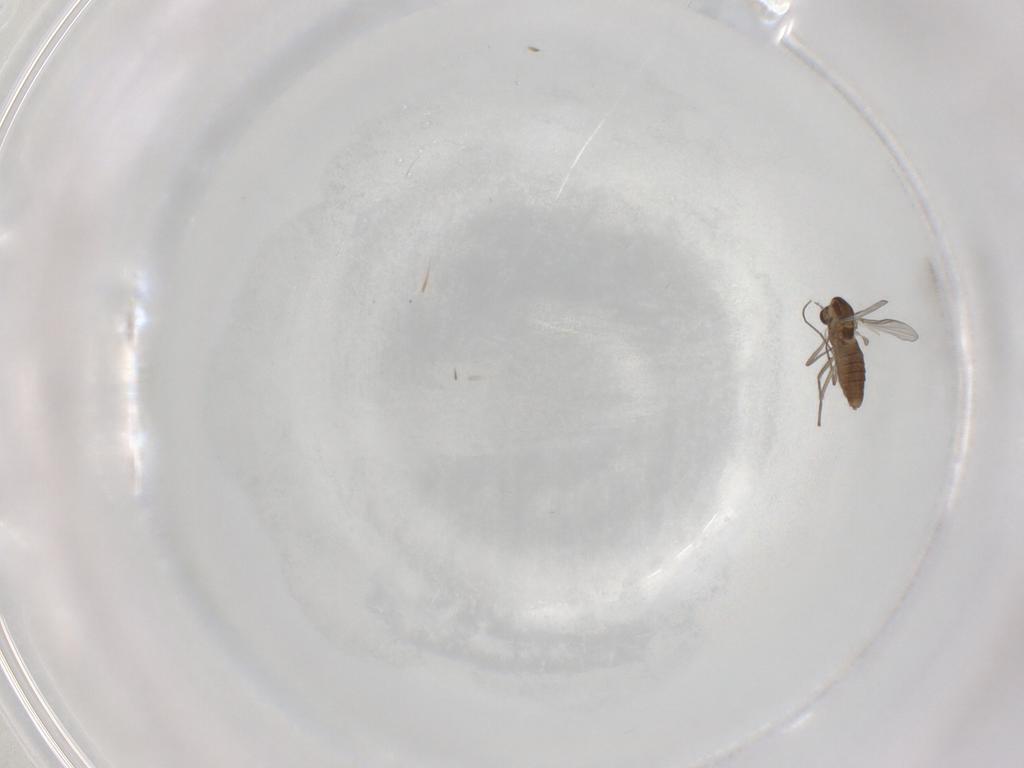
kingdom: Animalia
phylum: Arthropoda
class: Insecta
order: Diptera
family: Chironomidae
